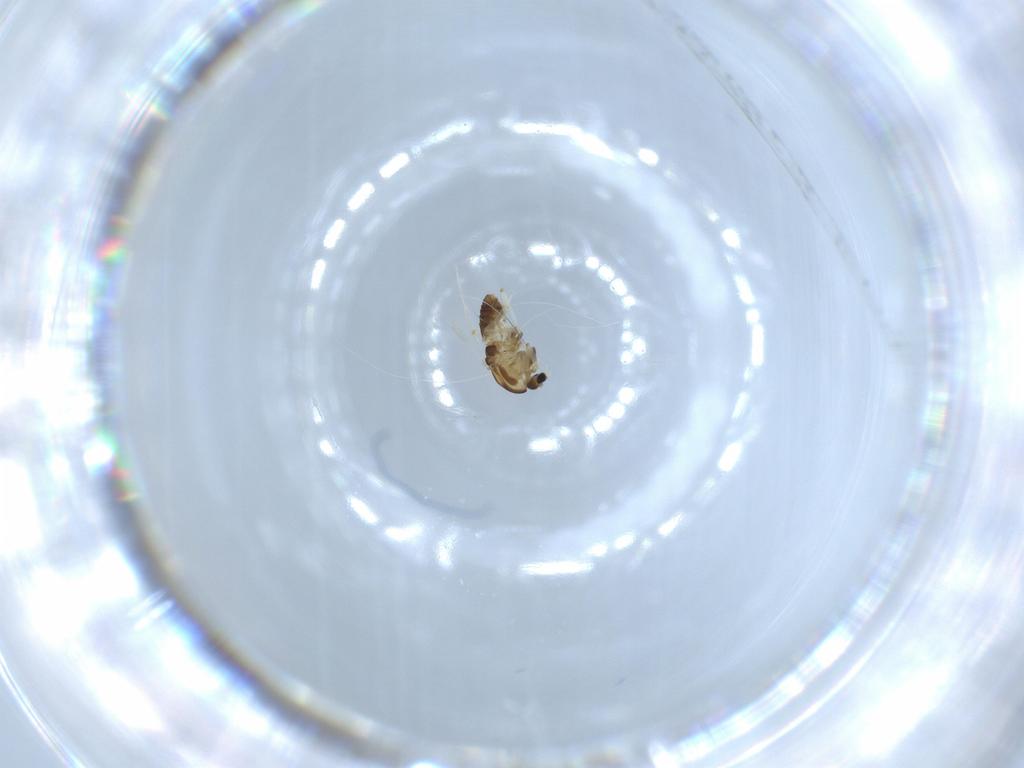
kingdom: Animalia
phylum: Arthropoda
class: Insecta
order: Diptera
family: Chironomidae
